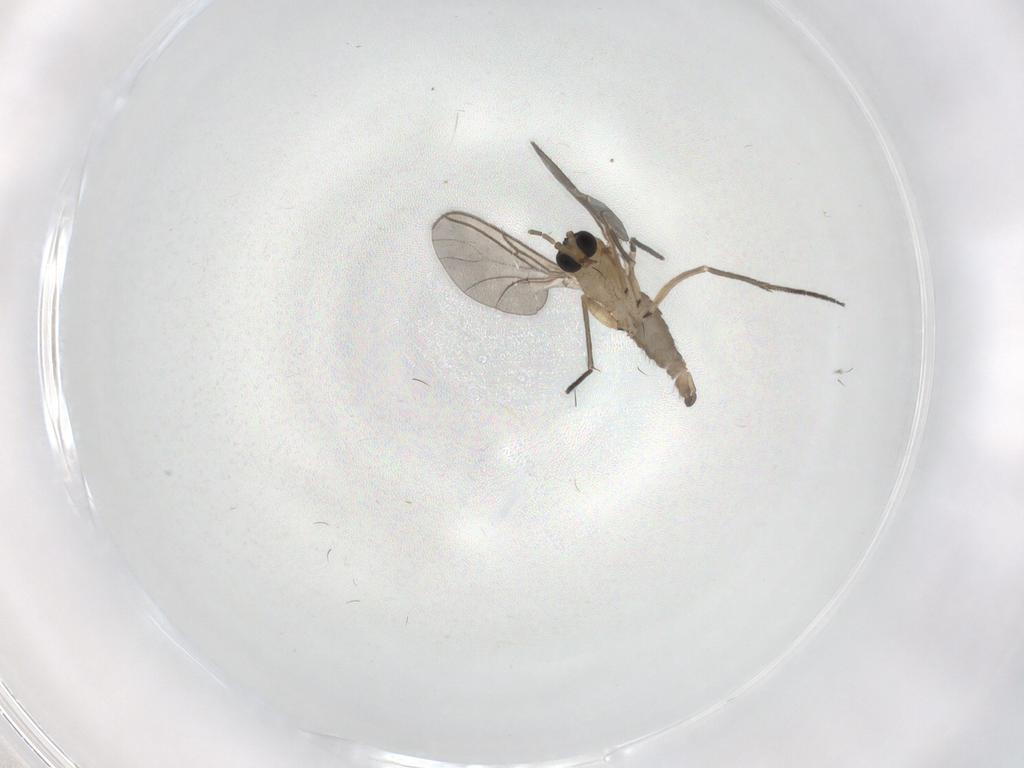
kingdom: Animalia
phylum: Arthropoda
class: Insecta
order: Diptera
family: Sciaridae
